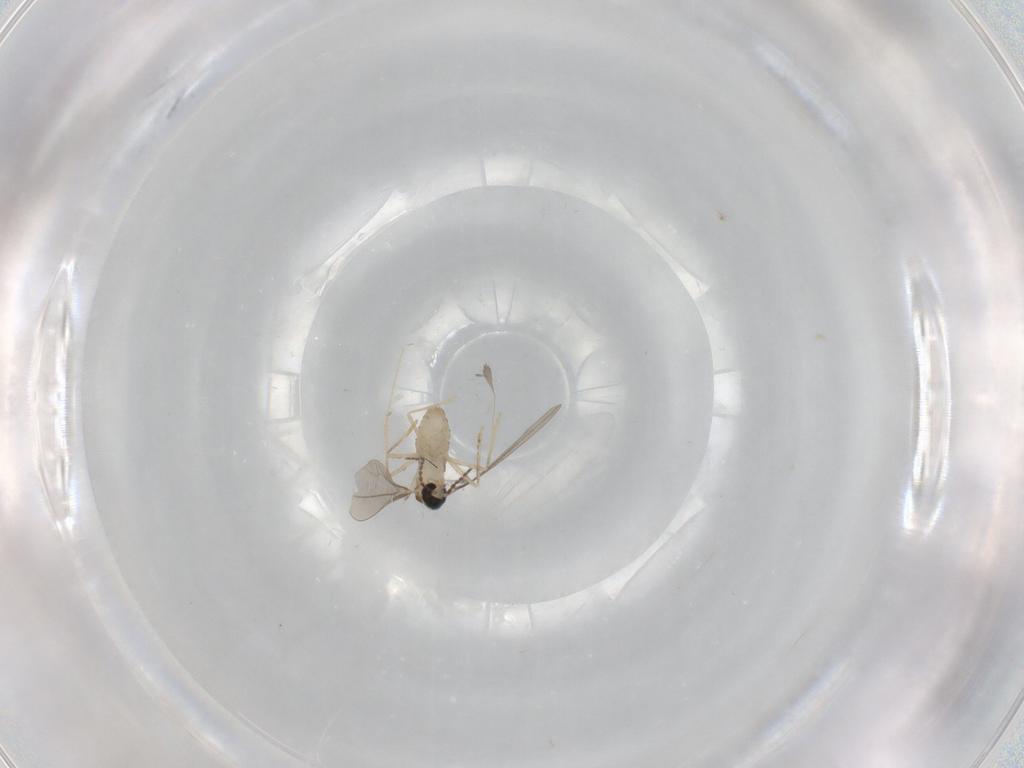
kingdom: Animalia
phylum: Arthropoda
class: Insecta
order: Diptera
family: Cecidomyiidae
